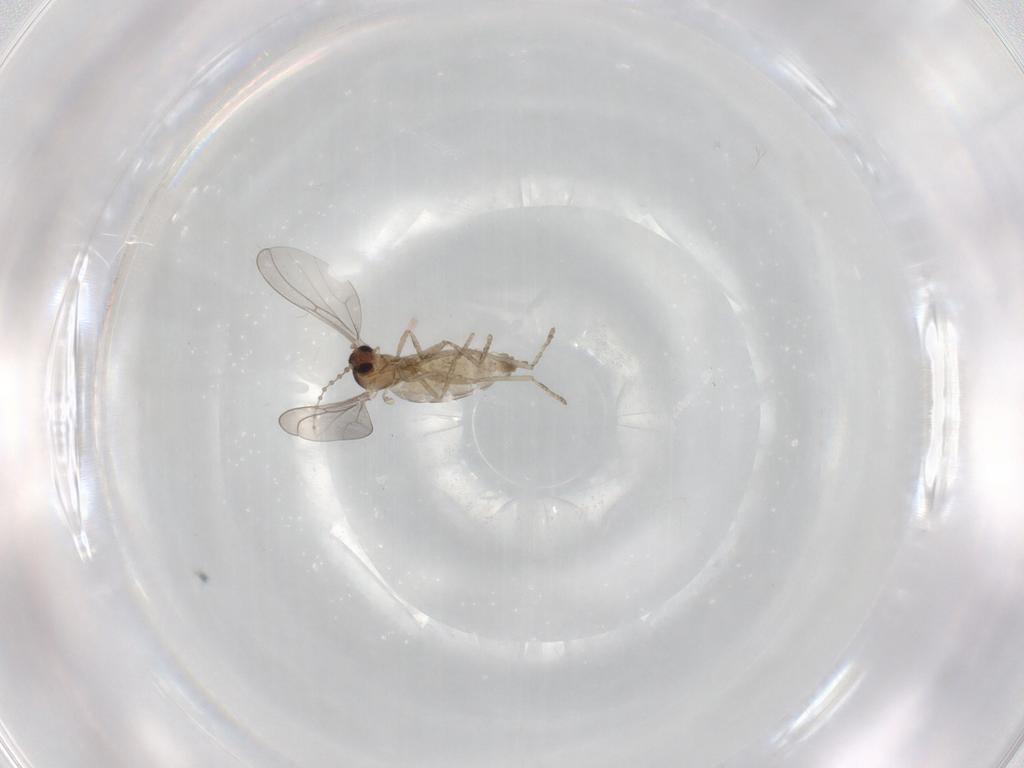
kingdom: Animalia
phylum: Arthropoda
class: Insecta
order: Diptera
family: Cecidomyiidae
